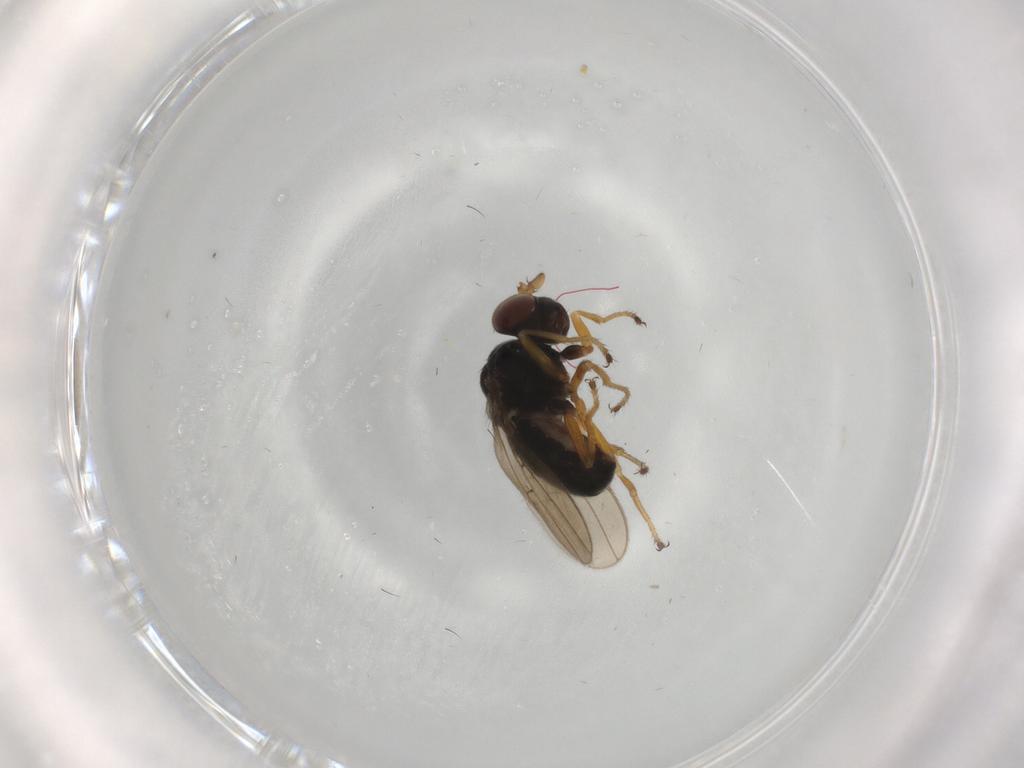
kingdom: Animalia
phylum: Arthropoda
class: Insecta
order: Diptera
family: Ephydridae
